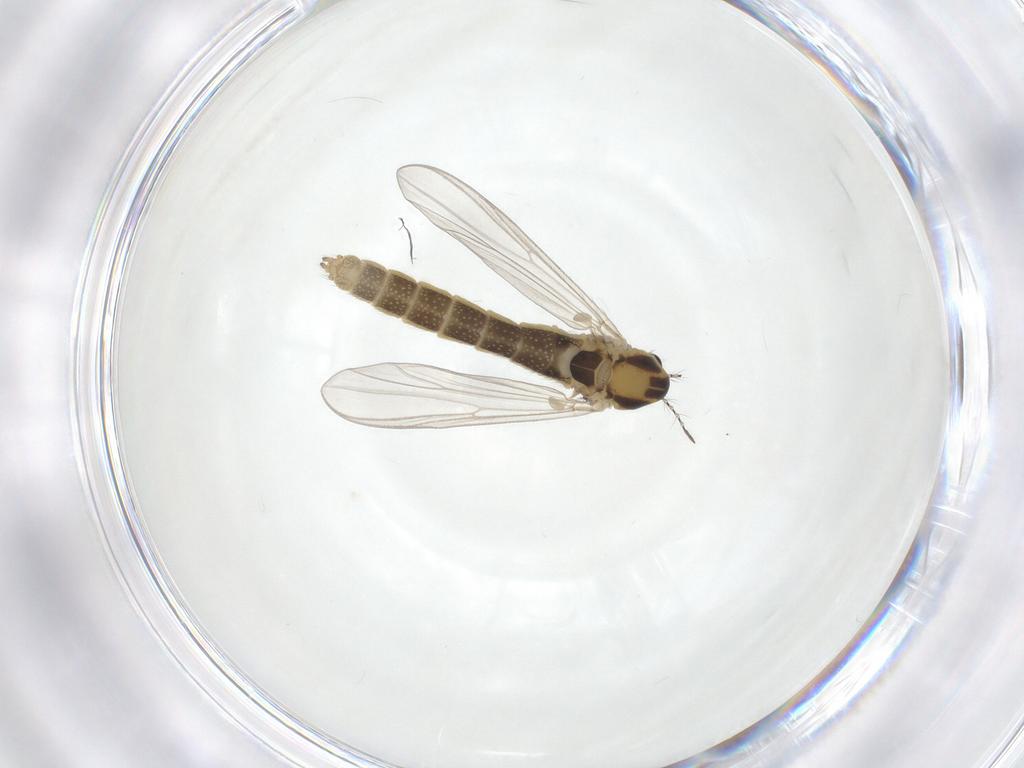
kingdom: Animalia
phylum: Arthropoda
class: Insecta
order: Diptera
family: Chironomidae
